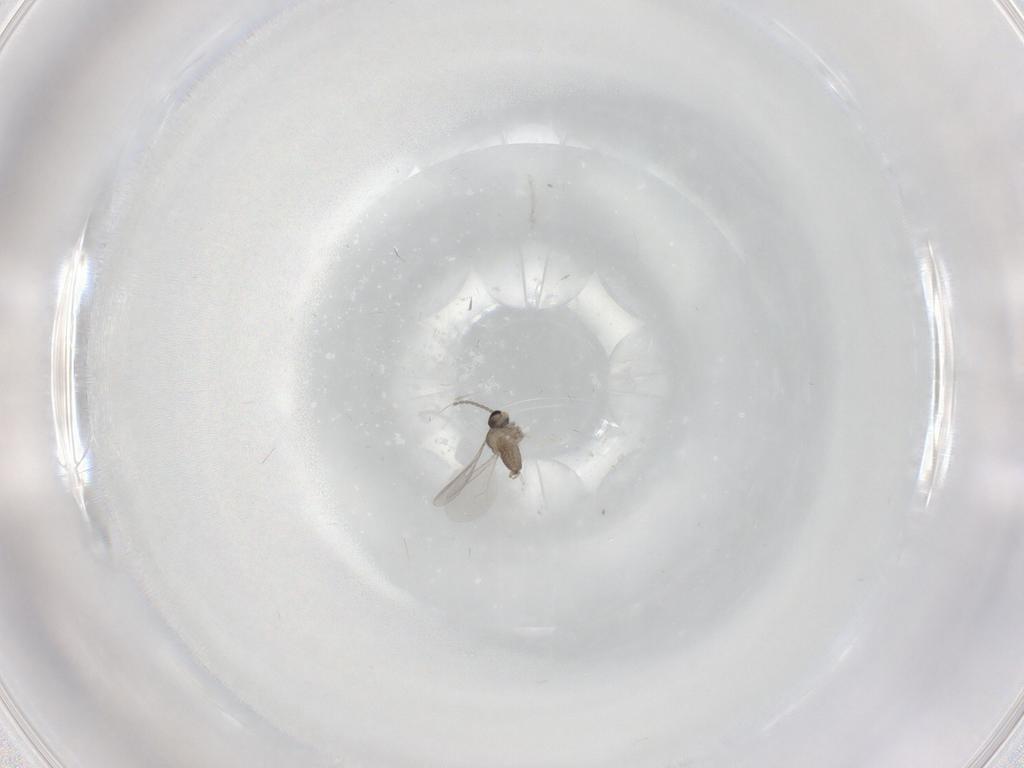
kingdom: Animalia
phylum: Arthropoda
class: Insecta
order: Diptera
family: Cecidomyiidae
